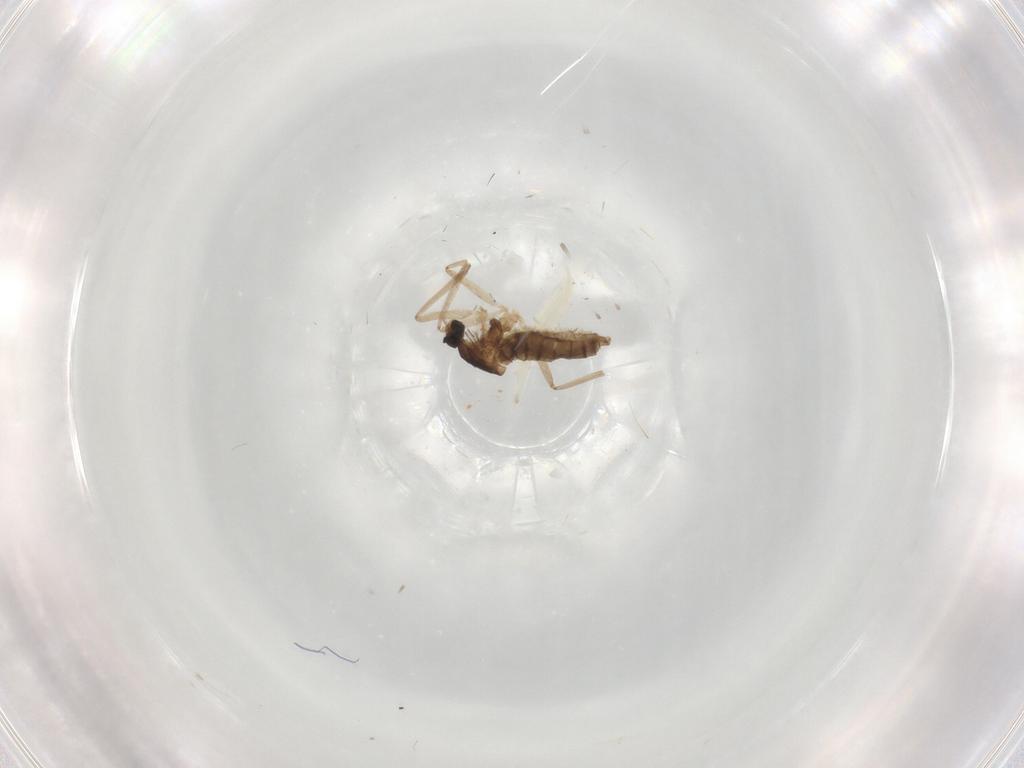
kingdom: Animalia
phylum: Arthropoda
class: Insecta
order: Diptera
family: Cecidomyiidae
